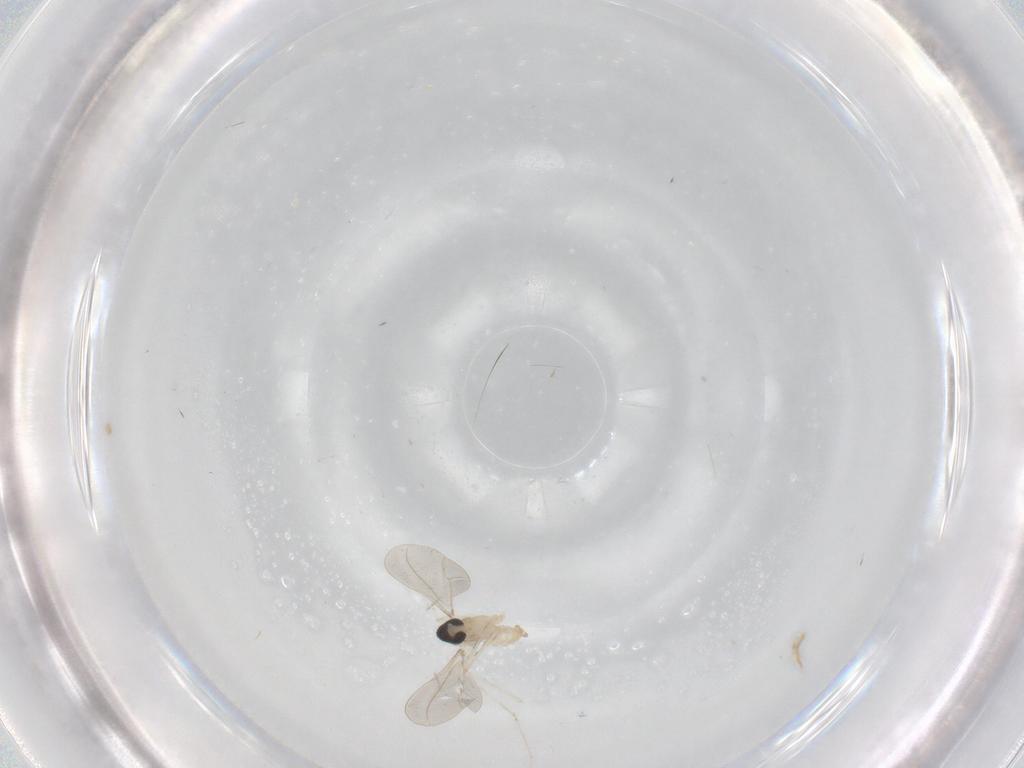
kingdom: Animalia
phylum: Arthropoda
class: Insecta
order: Diptera
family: Cecidomyiidae
